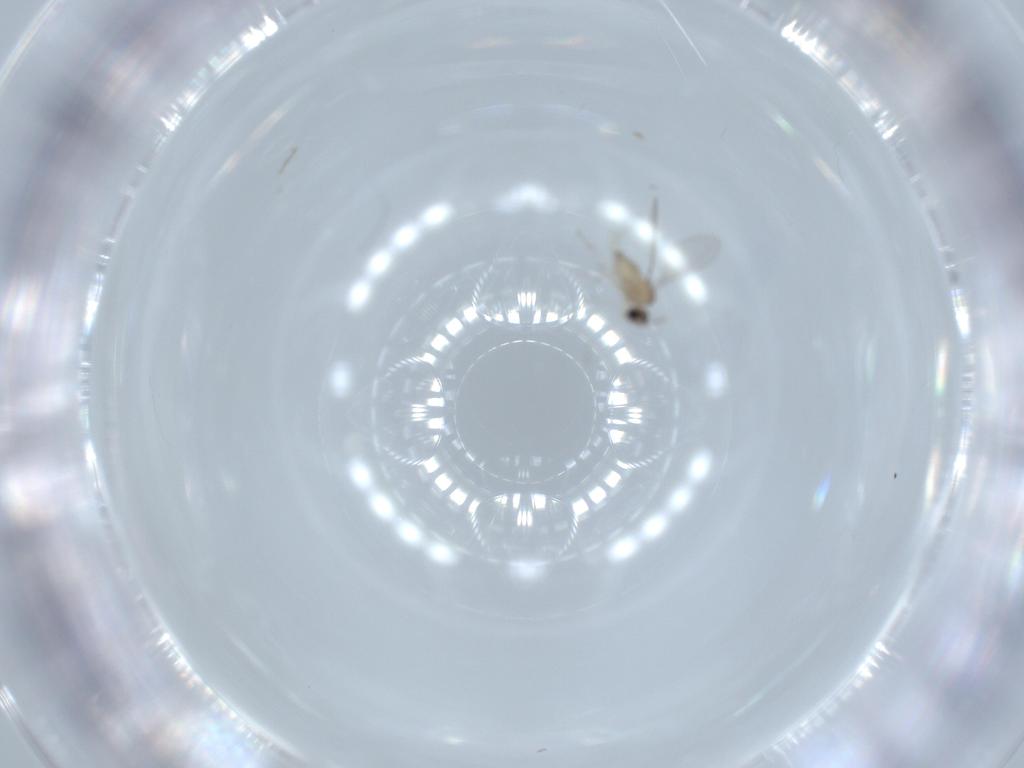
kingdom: Animalia
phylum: Arthropoda
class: Insecta
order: Diptera
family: Cecidomyiidae
